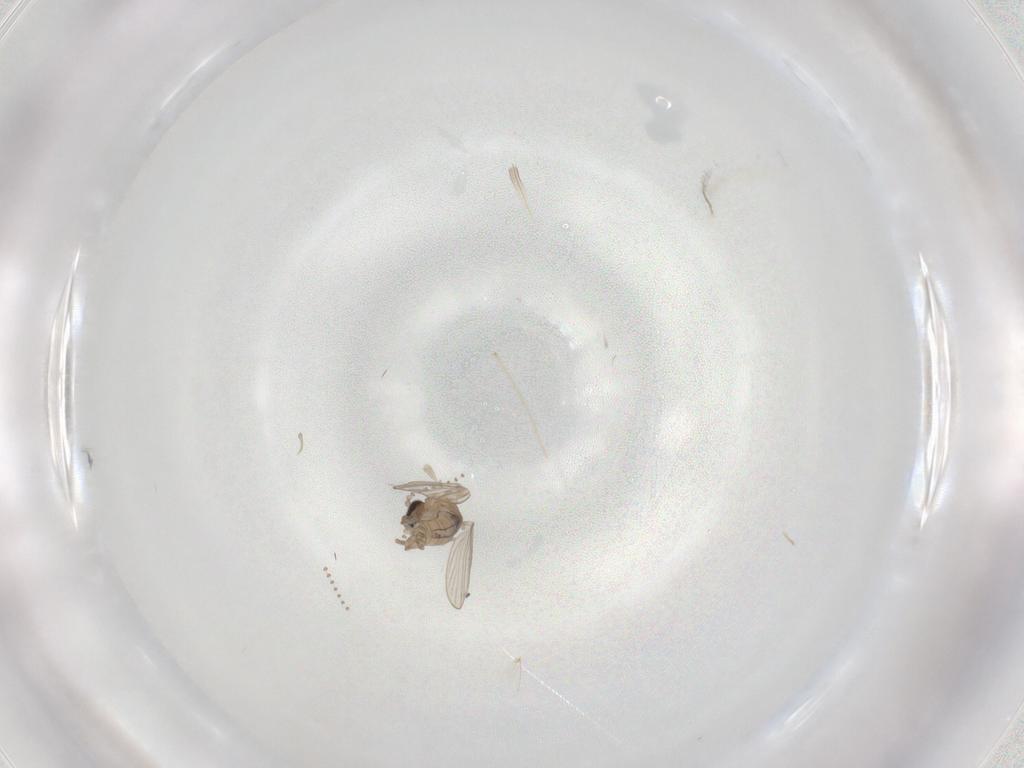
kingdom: Animalia
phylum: Arthropoda
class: Insecta
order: Diptera
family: Psychodidae
